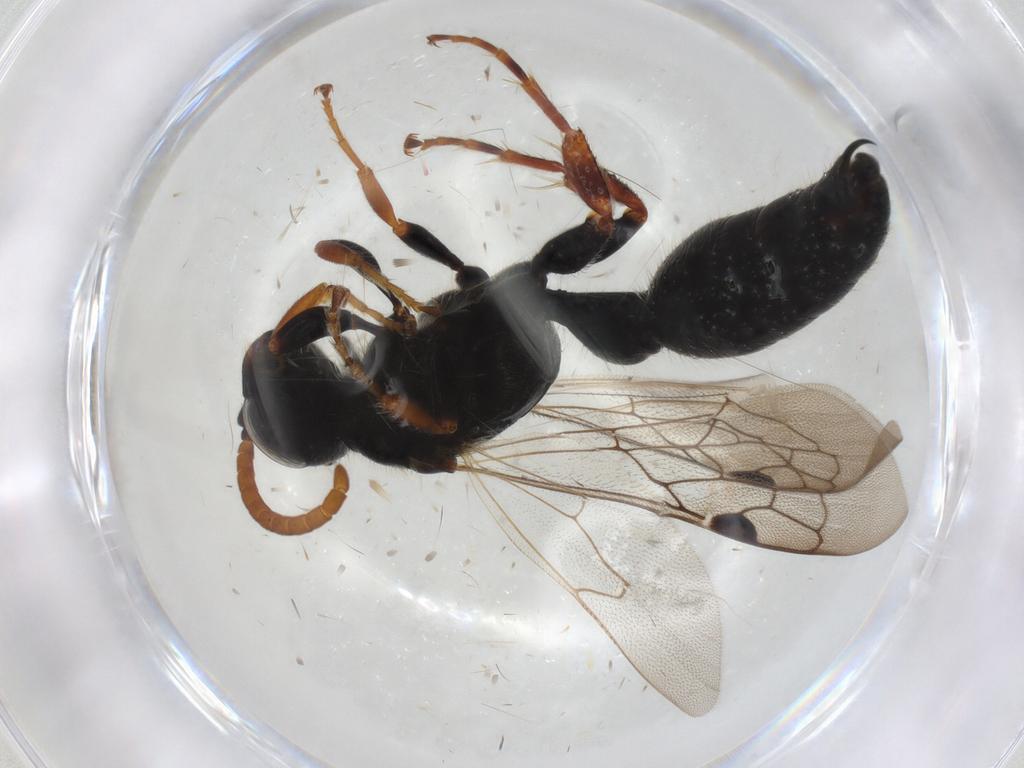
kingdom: Animalia
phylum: Arthropoda
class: Insecta
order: Hymenoptera
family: Tiphiidae
